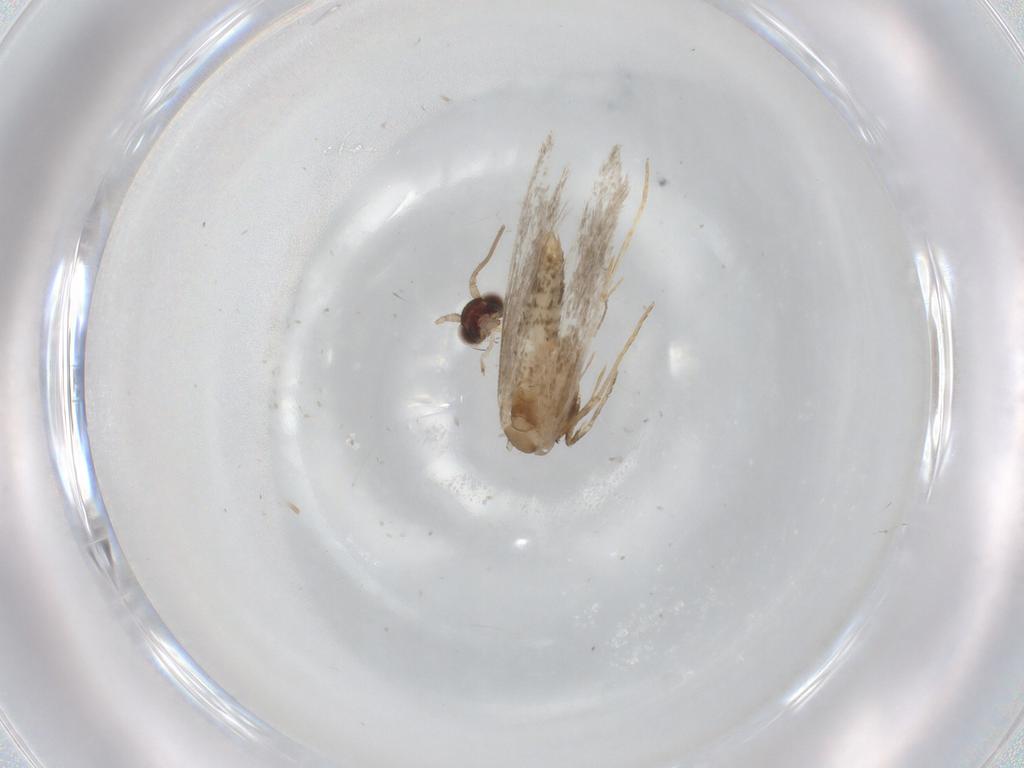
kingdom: Animalia
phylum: Arthropoda
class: Insecta
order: Lepidoptera
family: Tineidae
